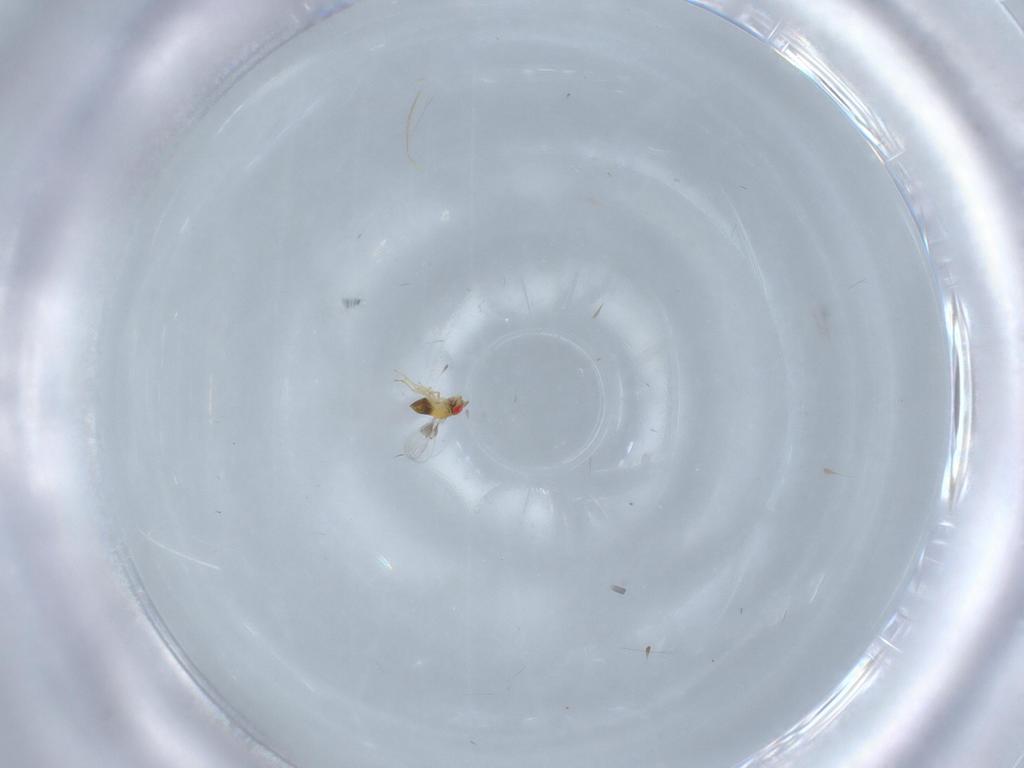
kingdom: Animalia
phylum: Arthropoda
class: Insecta
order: Hymenoptera
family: Trichogrammatidae
